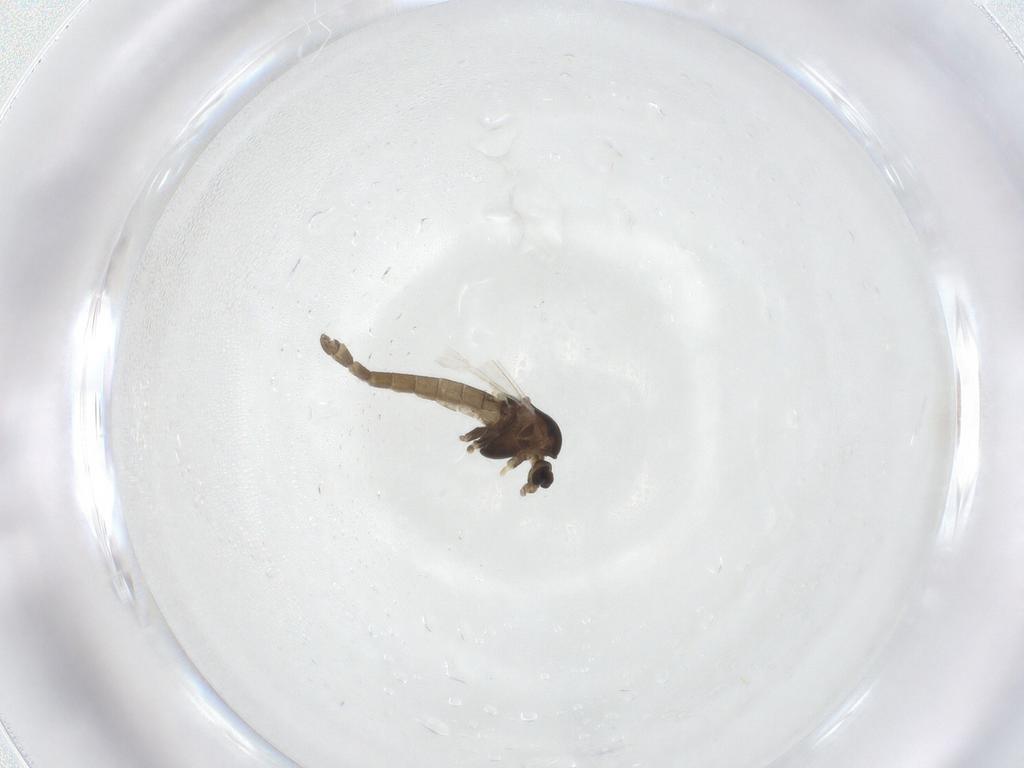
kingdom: Animalia
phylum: Arthropoda
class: Insecta
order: Diptera
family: Chironomidae
